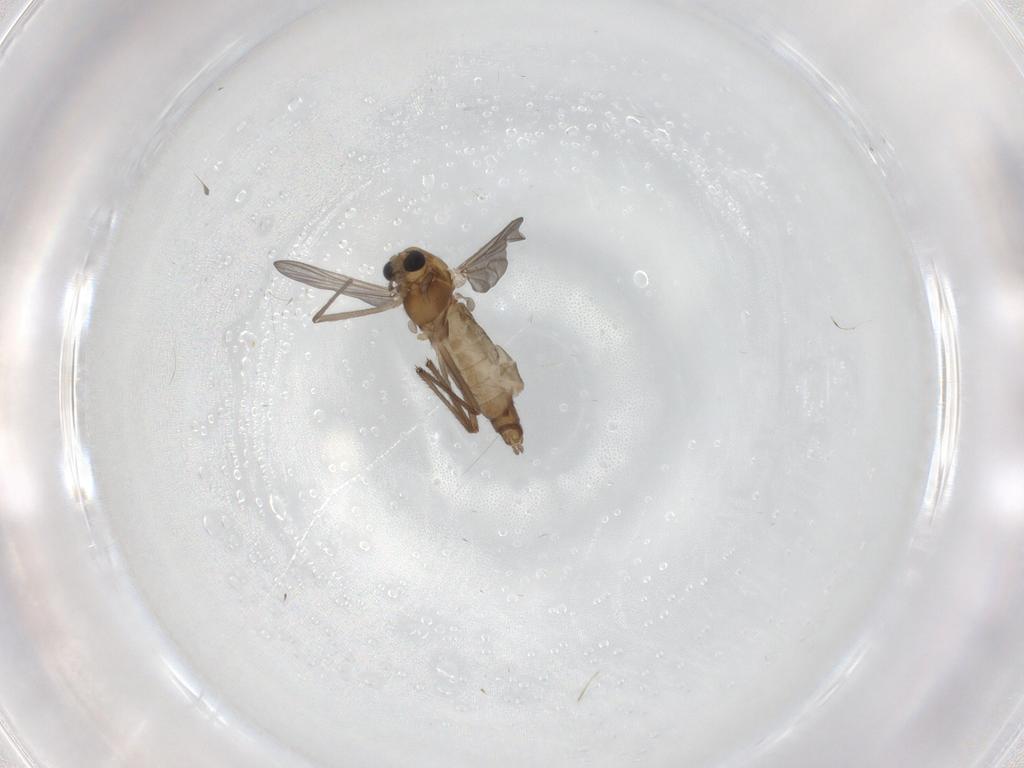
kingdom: Animalia
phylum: Arthropoda
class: Insecta
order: Diptera
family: Chironomidae
